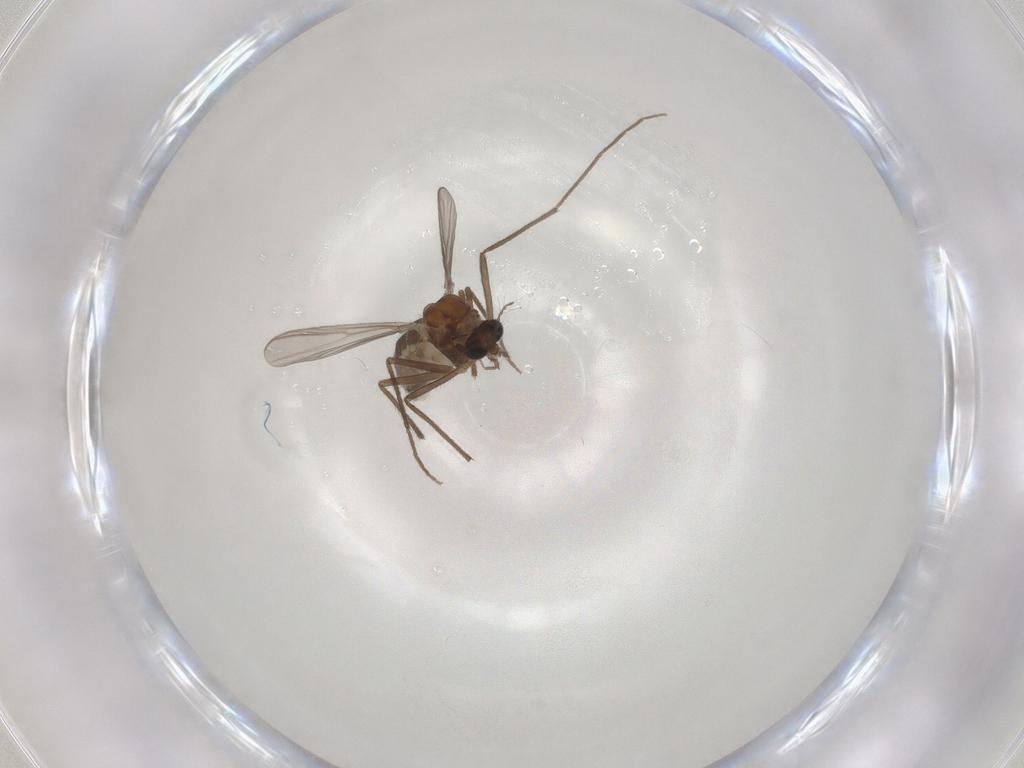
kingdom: Animalia
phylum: Arthropoda
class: Insecta
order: Diptera
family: Chironomidae
